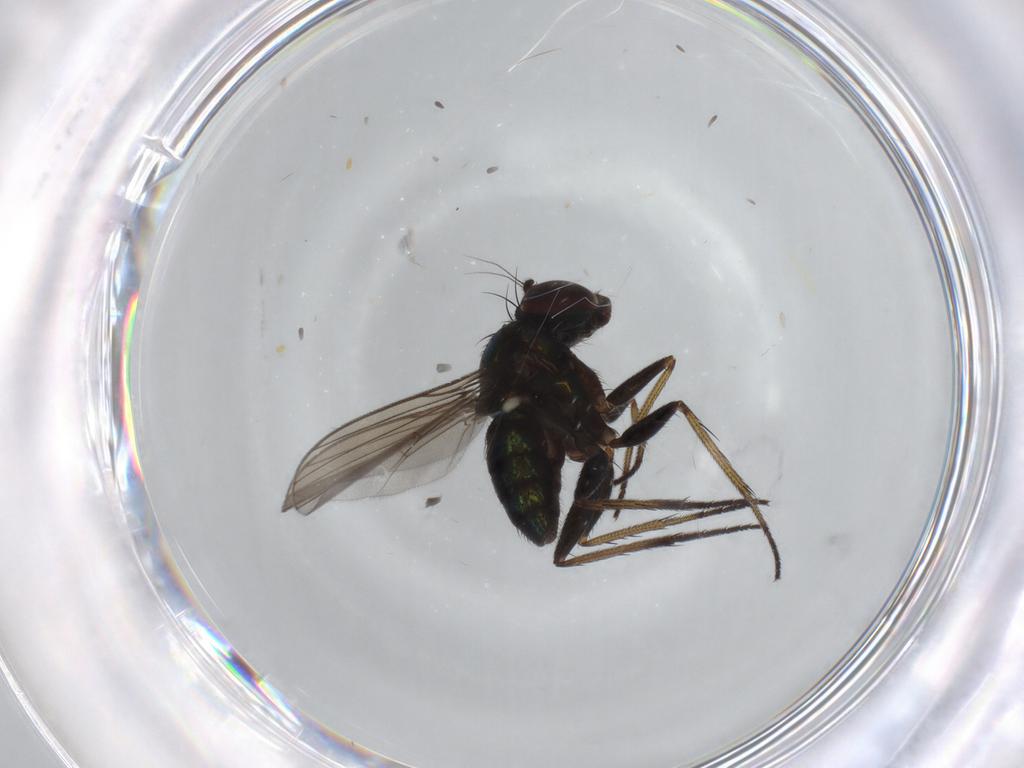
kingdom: Animalia
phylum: Arthropoda
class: Insecta
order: Diptera
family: Dolichopodidae
